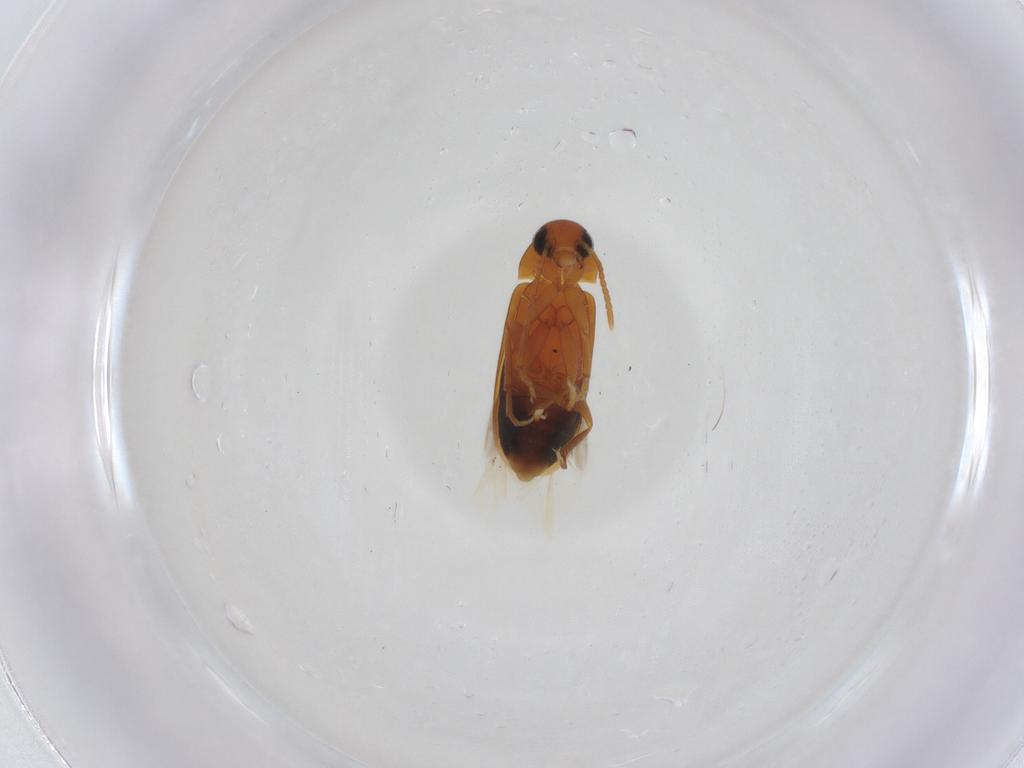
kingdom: Animalia
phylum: Arthropoda
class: Insecta
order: Coleoptera
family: Scraptiidae
